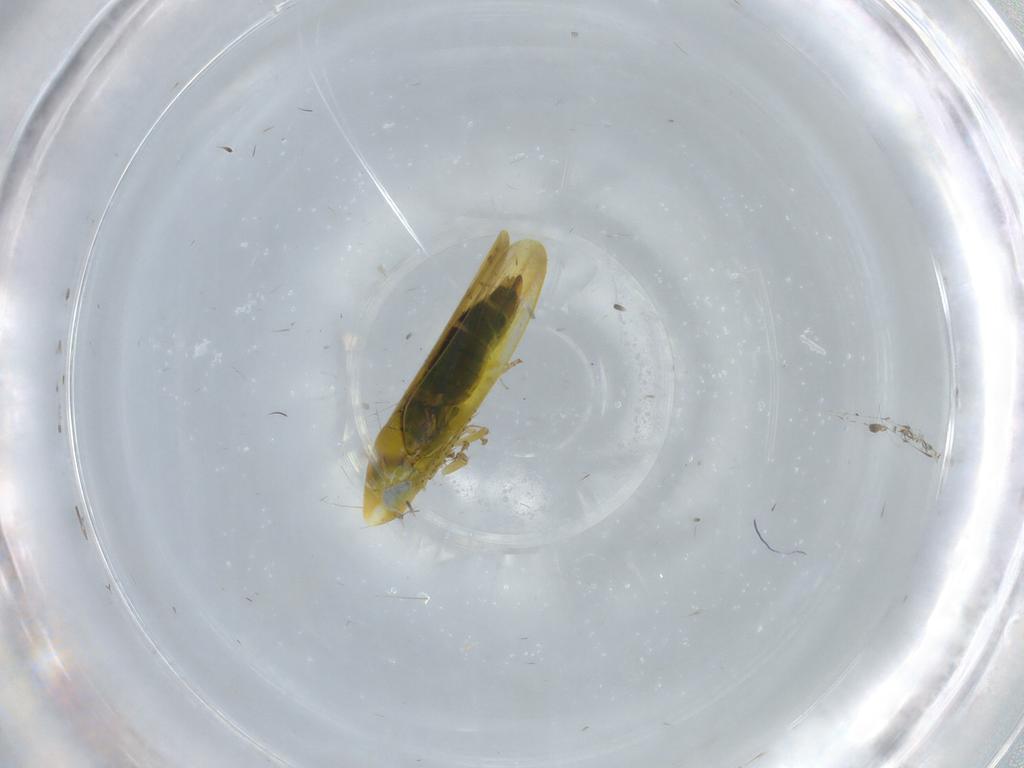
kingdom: Animalia
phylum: Arthropoda
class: Insecta
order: Hemiptera
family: Cicadellidae
